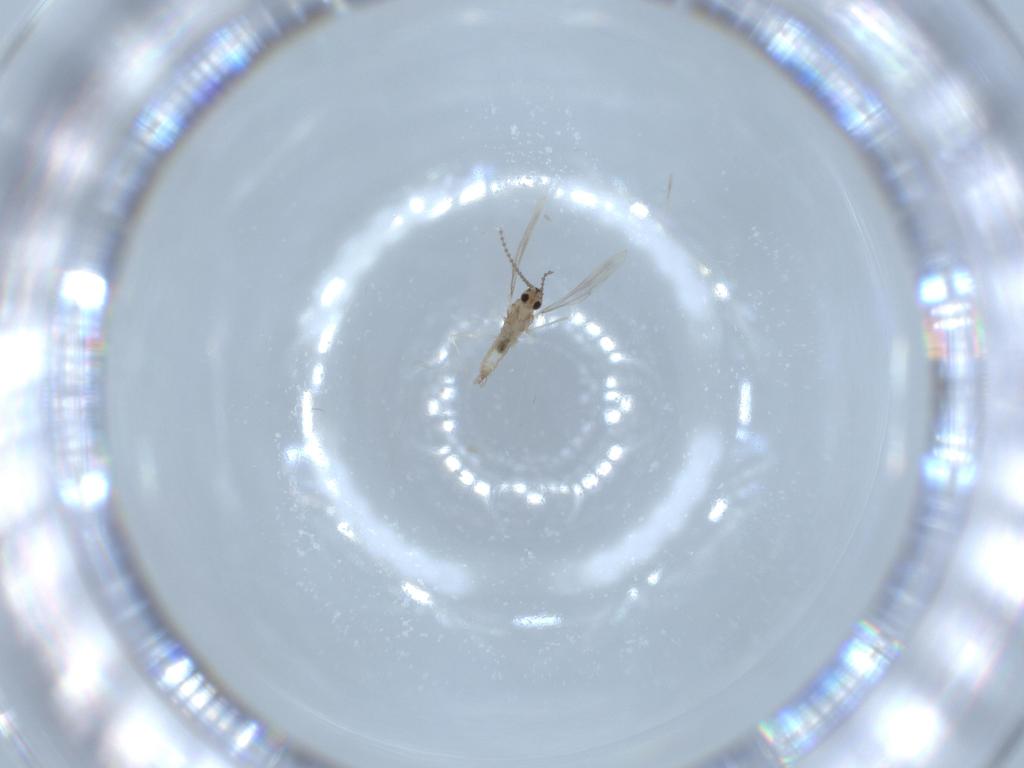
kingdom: Animalia
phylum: Arthropoda
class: Insecta
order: Diptera
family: Cecidomyiidae
